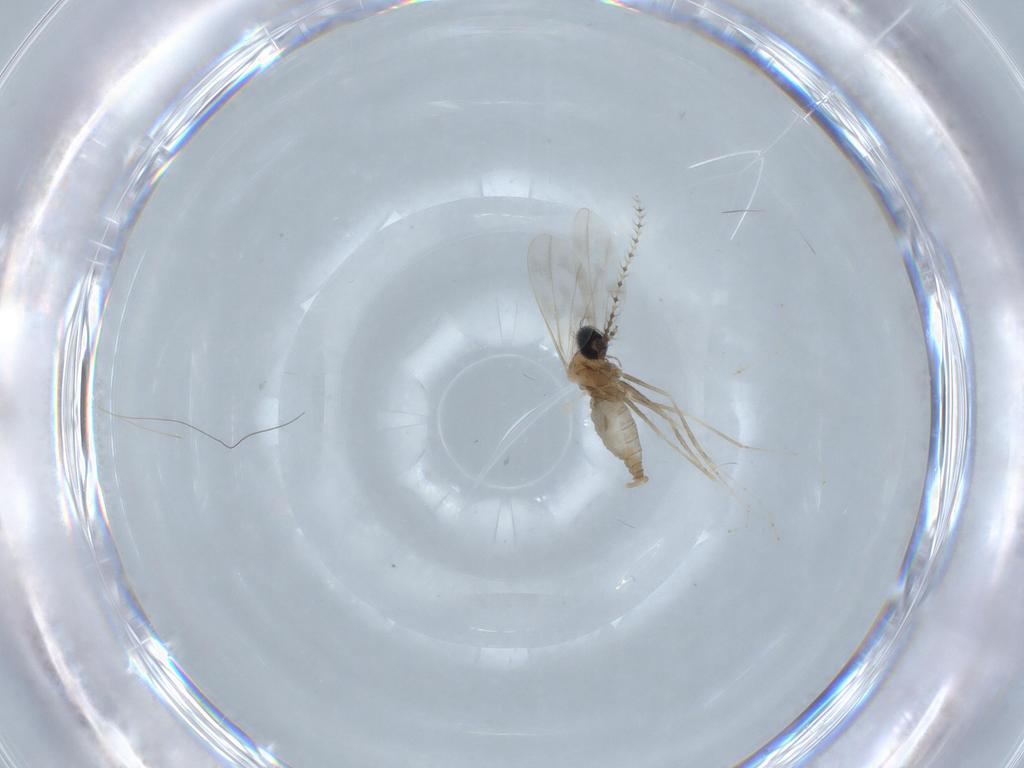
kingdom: Animalia
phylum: Arthropoda
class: Insecta
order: Diptera
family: Cecidomyiidae
